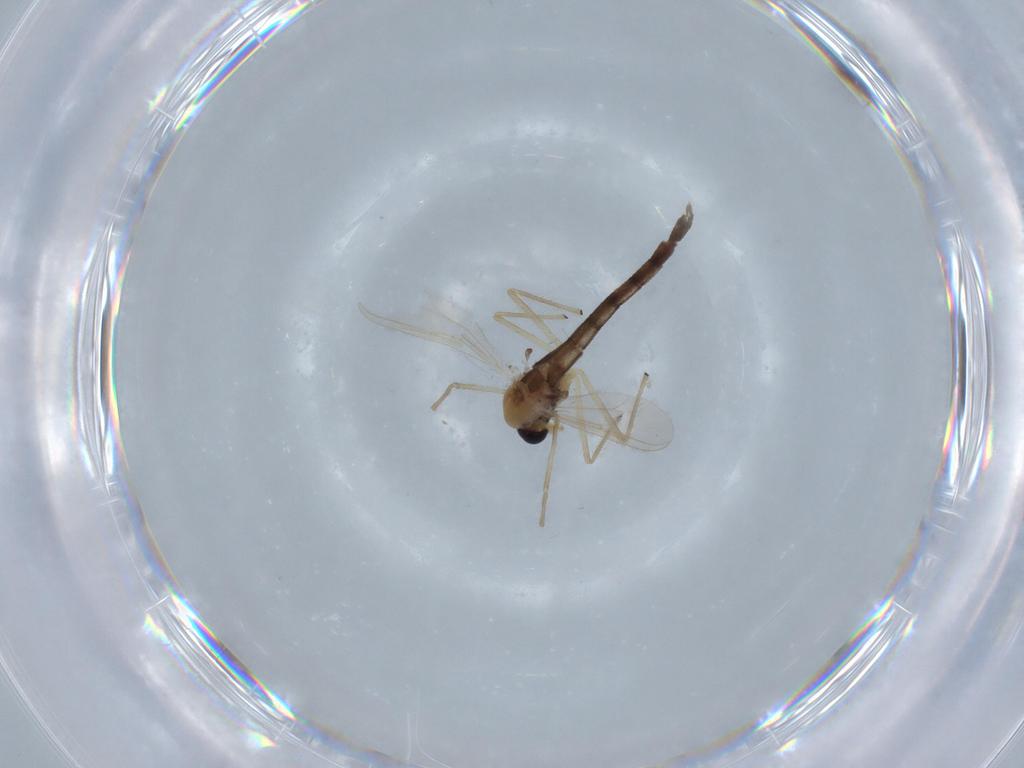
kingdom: Animalia
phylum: Arthropoda
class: Insecta
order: Diptera
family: Chironomidae
